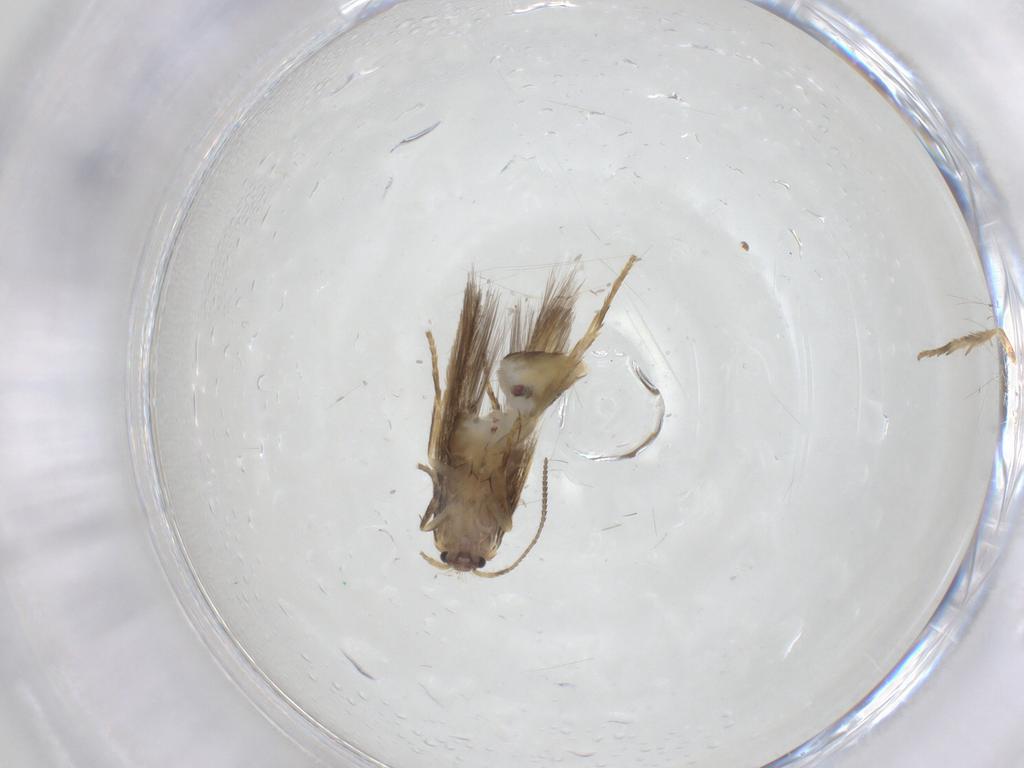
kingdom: Animalia
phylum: Arthropoda
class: Insecta
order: Lepidoptera
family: Nepticulidae
